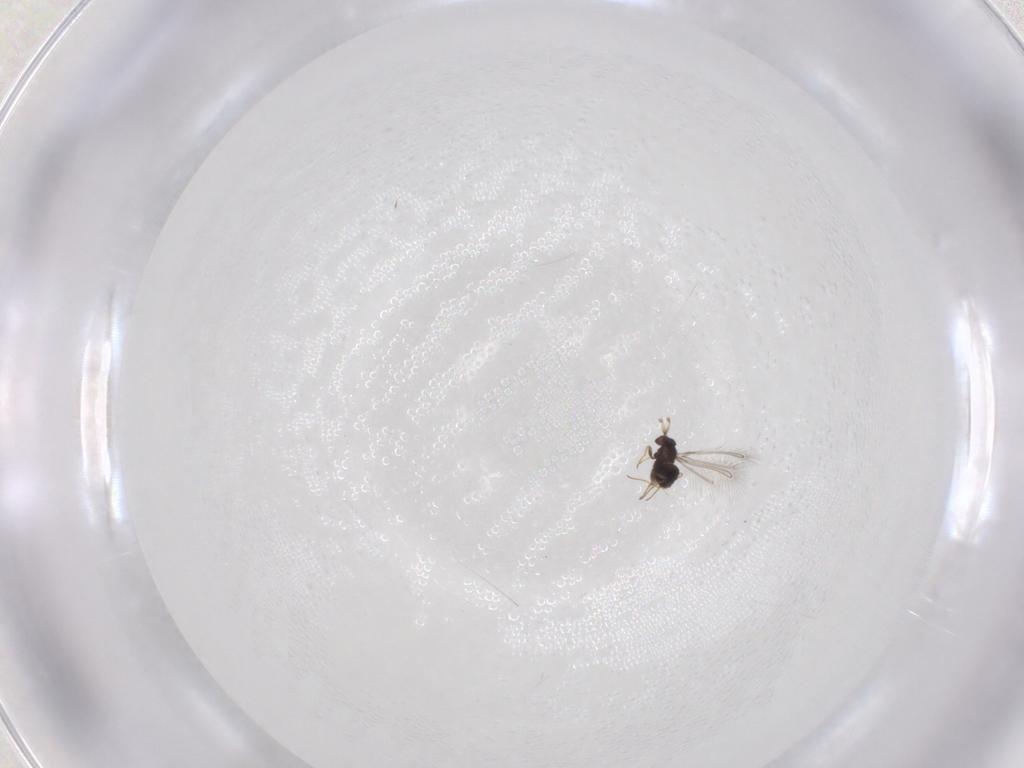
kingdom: Animalia
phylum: Arthropoda
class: Insecta
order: Hymenoptera
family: Mymaridae
